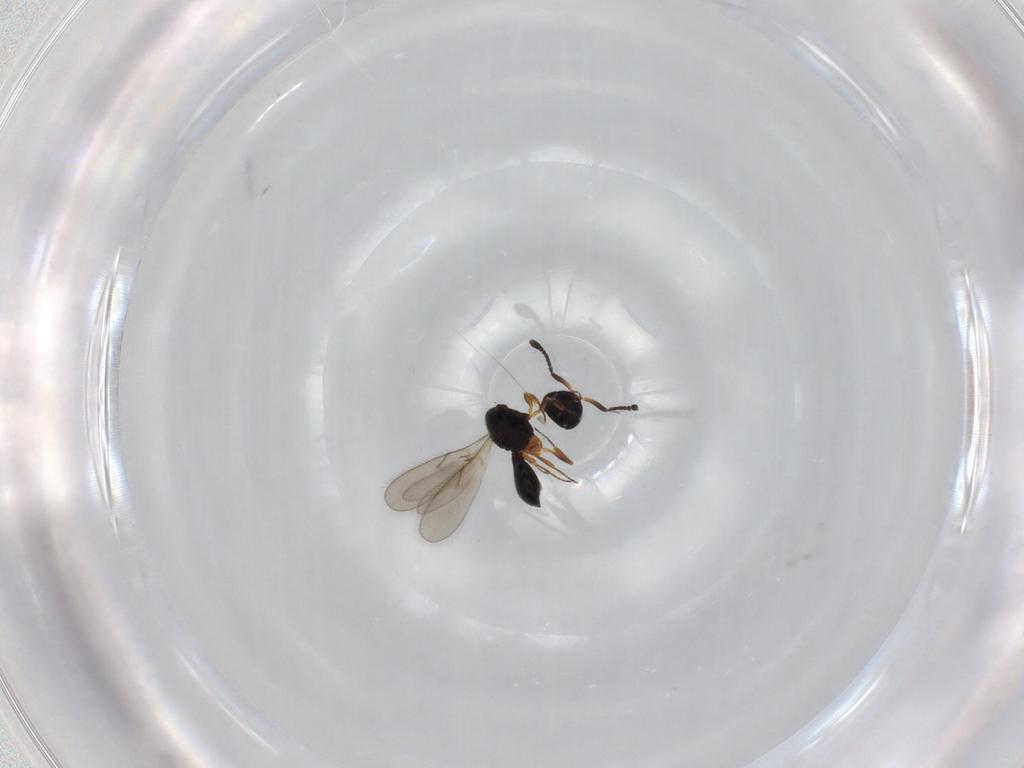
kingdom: Animalia
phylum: Arthropoda
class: Insecta
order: Hymenoptera
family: Scelionidae
